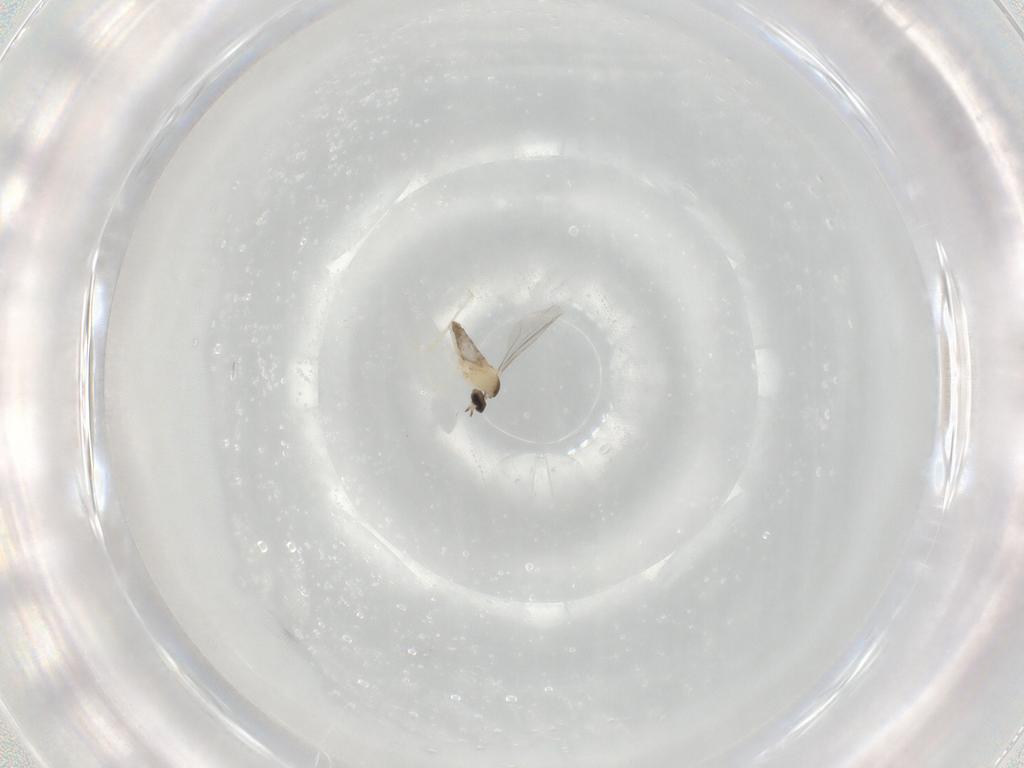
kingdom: Animalia
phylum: Arthropoda
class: Insecta
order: Diptera
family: Cecidomyiidae
